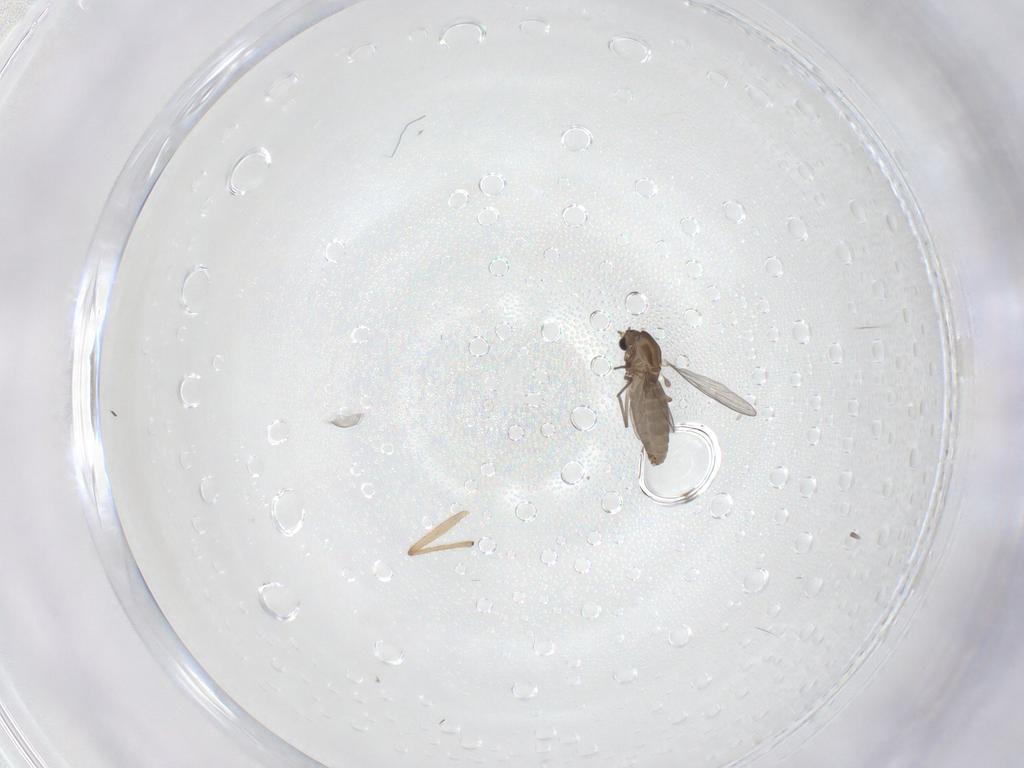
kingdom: Animalia
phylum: Arthropoda
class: Insecta
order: Diptera
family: Chironomidae
